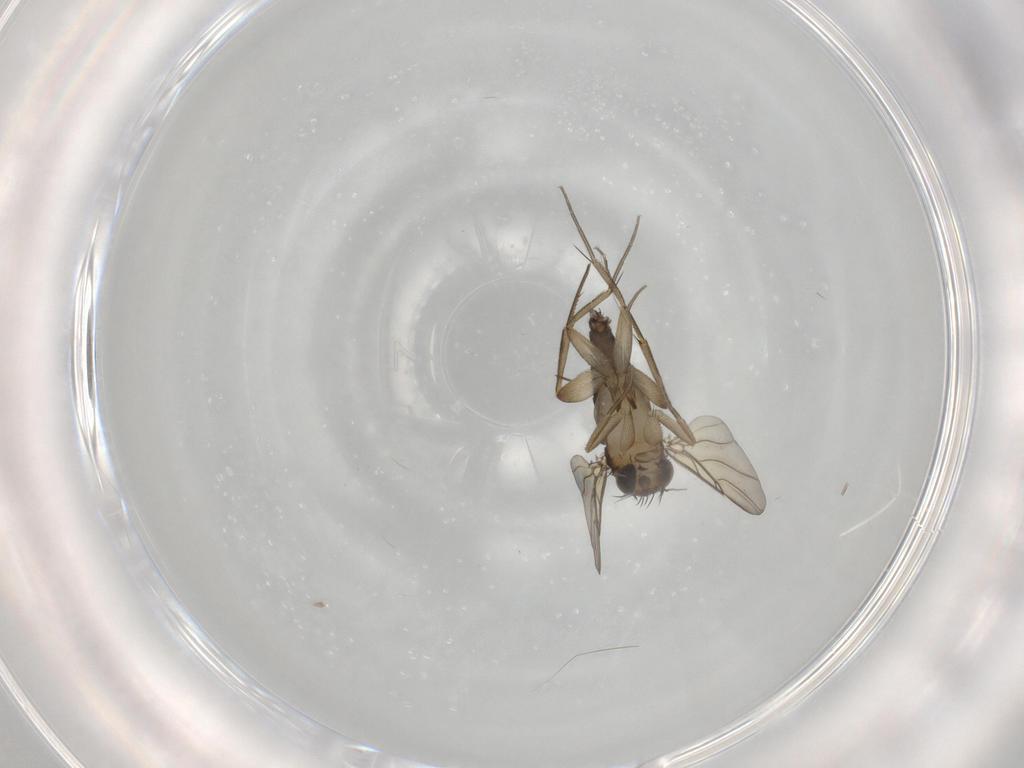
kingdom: Animalia
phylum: Arthropoda
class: Insecta
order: Diptera
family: Phoridae
